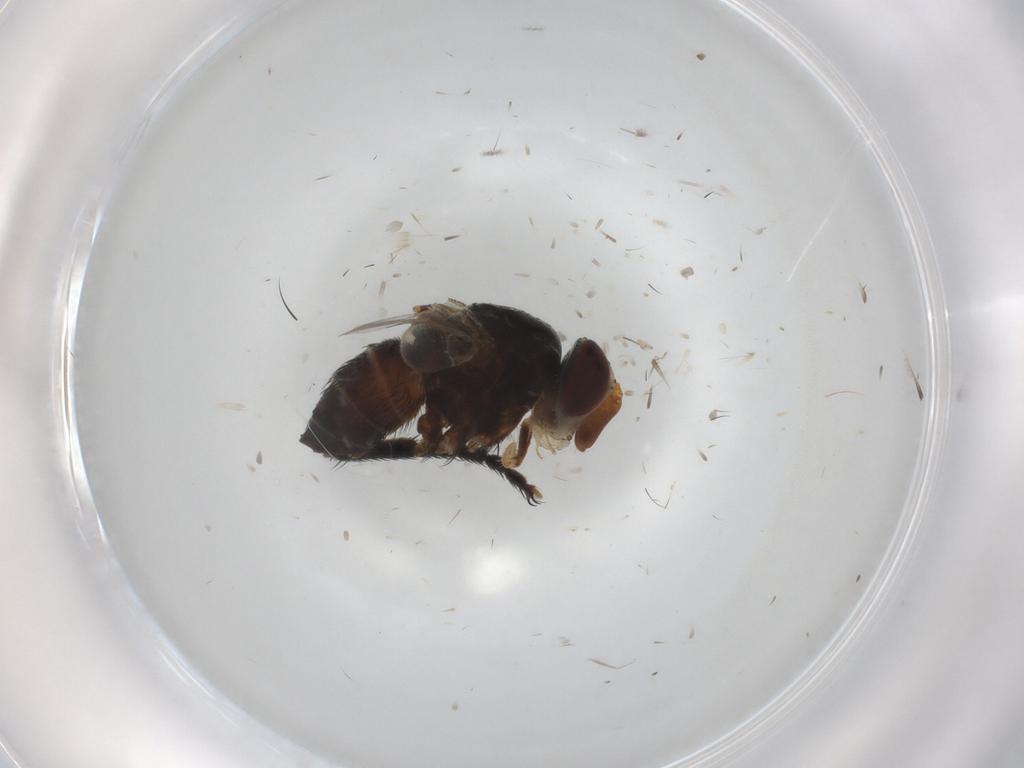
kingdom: Animalia
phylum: Arthropoda
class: Insecta
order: Diptera
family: Muscidae
